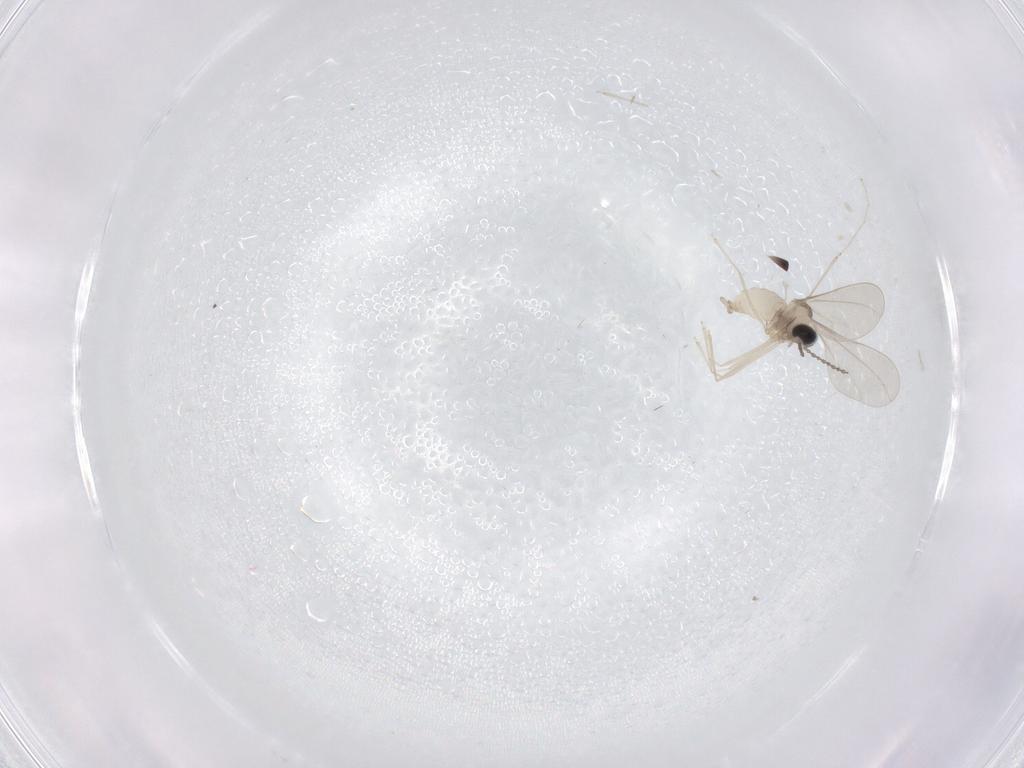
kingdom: Animalia
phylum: Arthropoda
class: Insecta
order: Diptera
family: Cecidomyiidae
